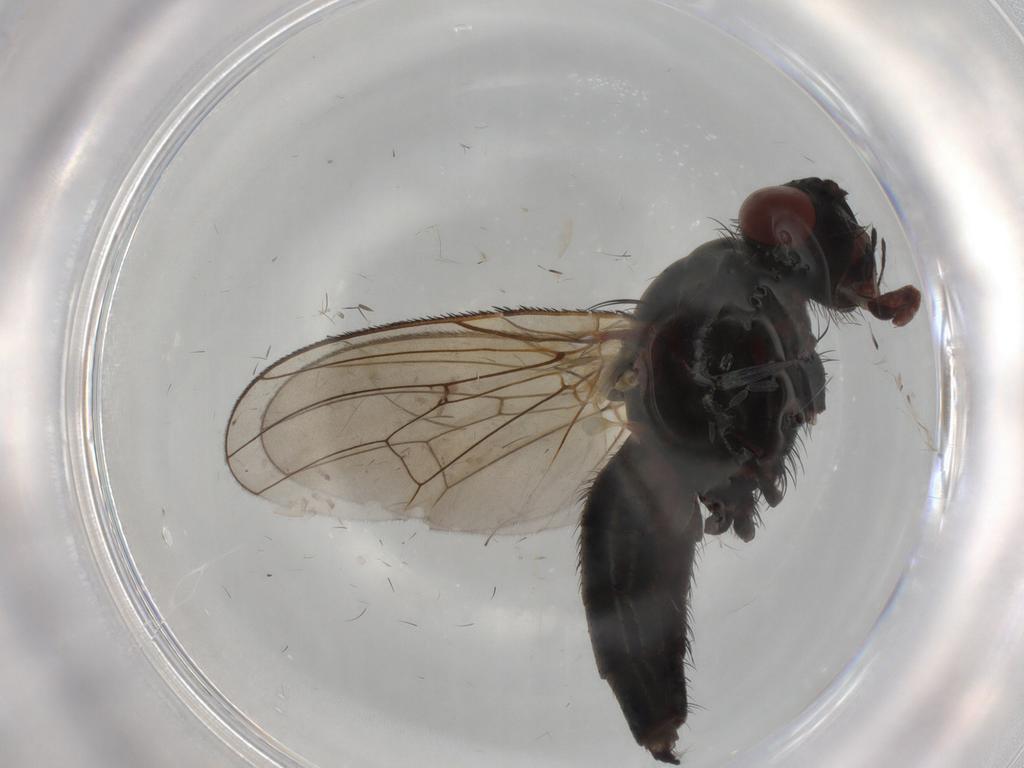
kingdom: Animalia
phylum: Arthropoda
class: Insecta
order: Diptera
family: Anthomyiidae
